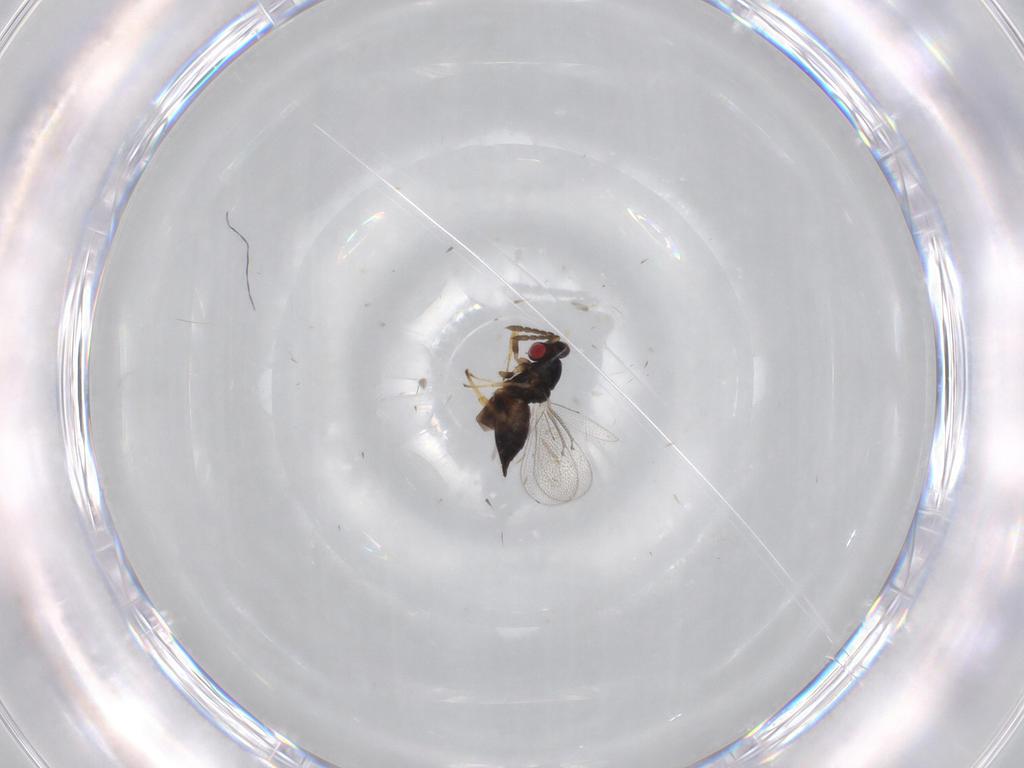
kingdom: Animalia
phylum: Arthropoda
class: Insecta
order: Hymenoptera
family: Eulophidae
